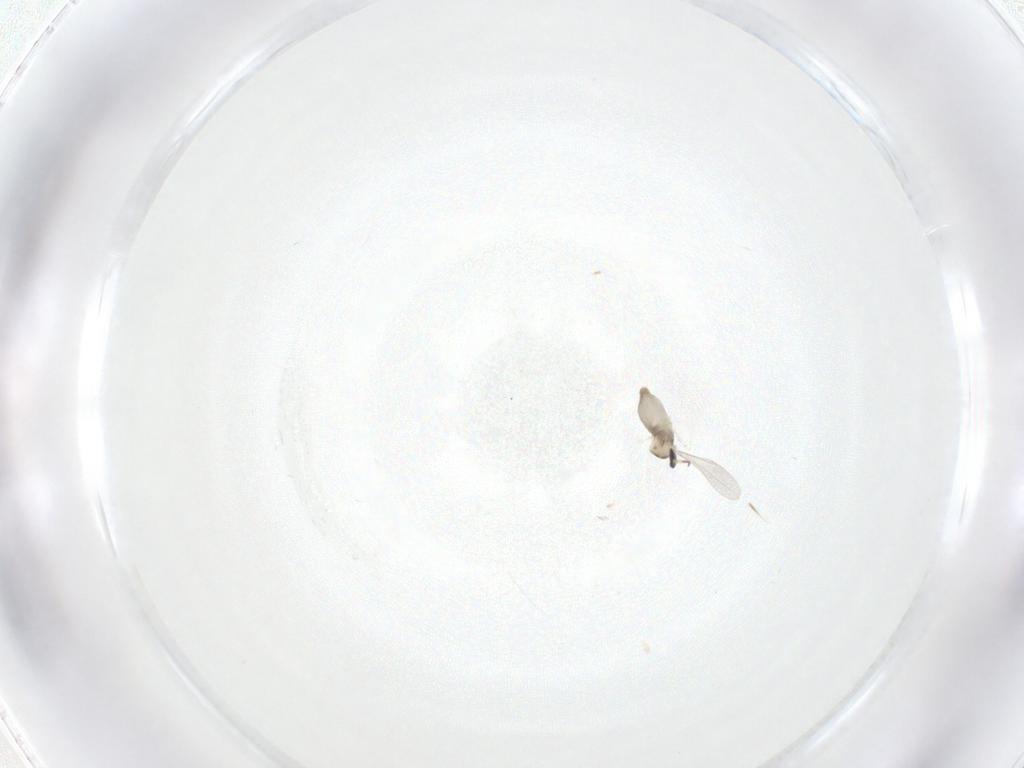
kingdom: Animalia
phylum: Arthropoda
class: Insecta
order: Diptera
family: Cecidomyiidae
